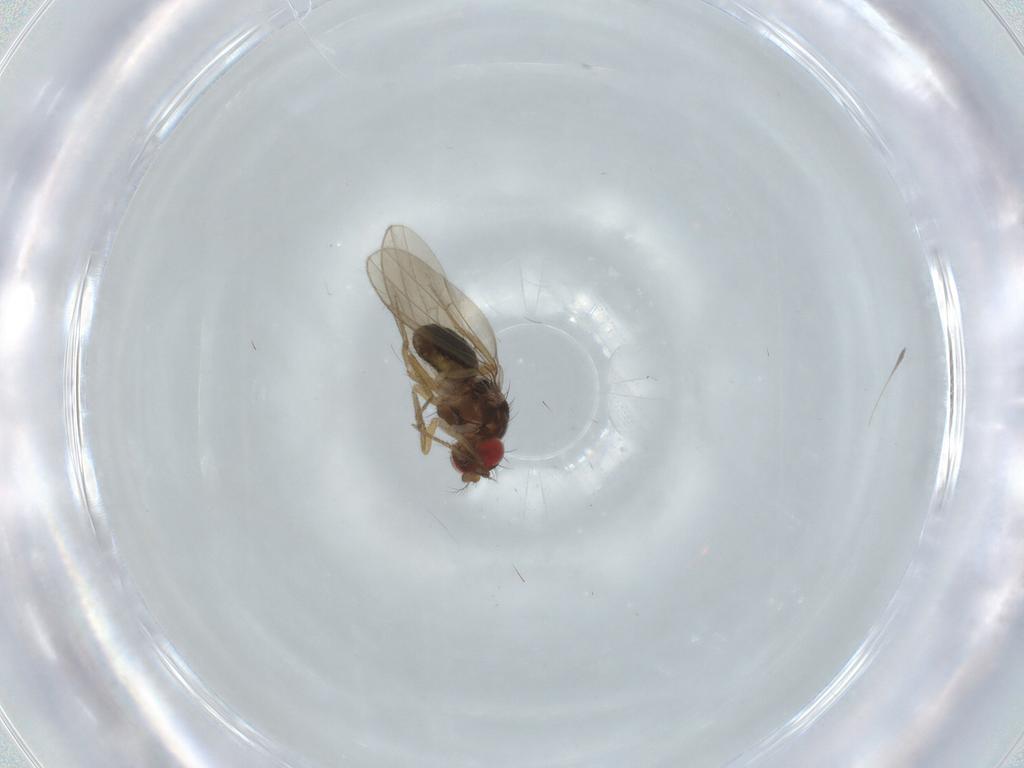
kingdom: Animalia
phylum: Arthropoda
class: Insecta
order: Diptera
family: Drosophilidae
